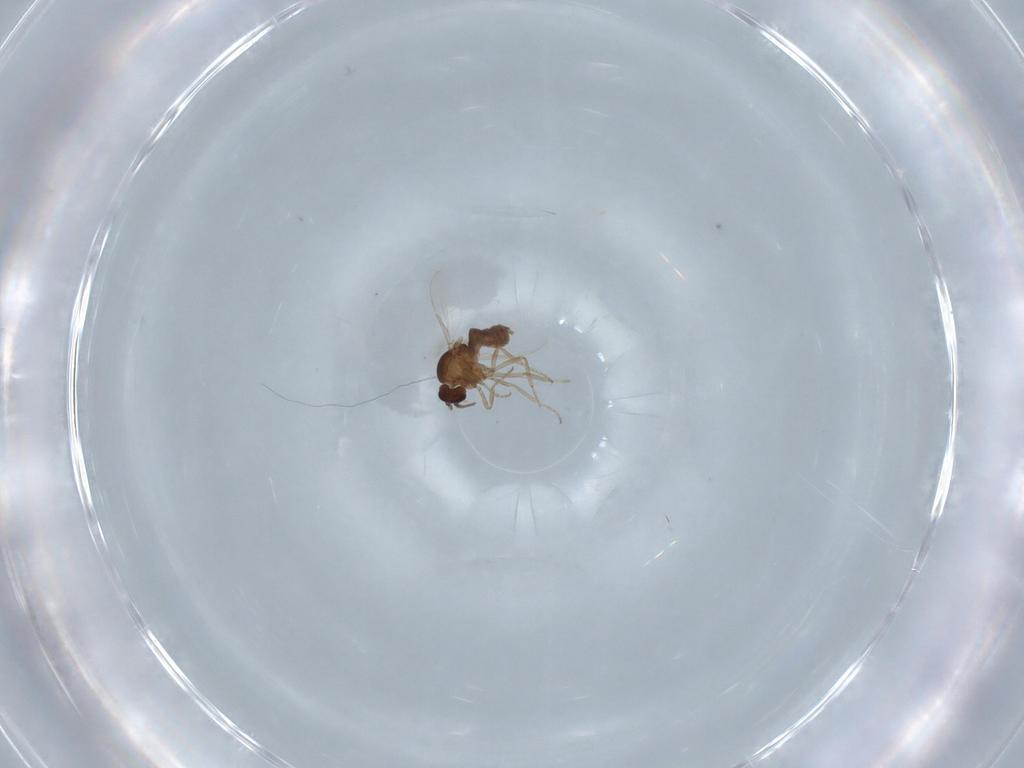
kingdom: Animalia
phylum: Arthropoda
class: Insecta
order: Diptera
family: Ceratopogonidae
